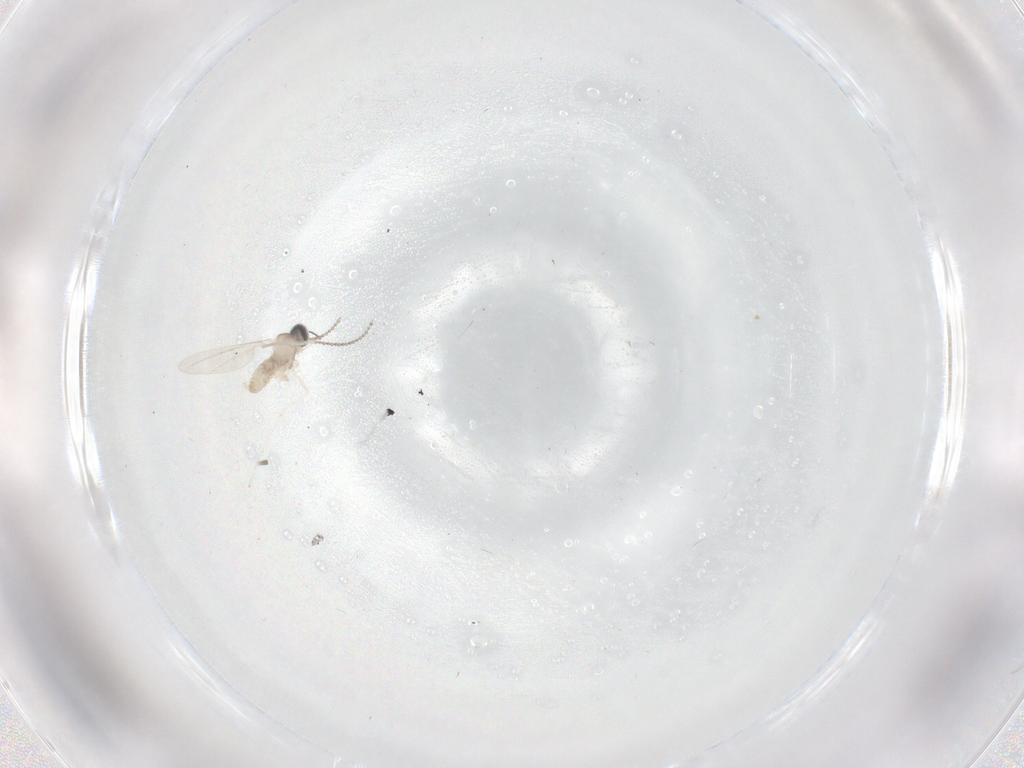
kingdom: Animalia
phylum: Arthropoda
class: Insecta
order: Diptera
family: Cecidomyiidae
